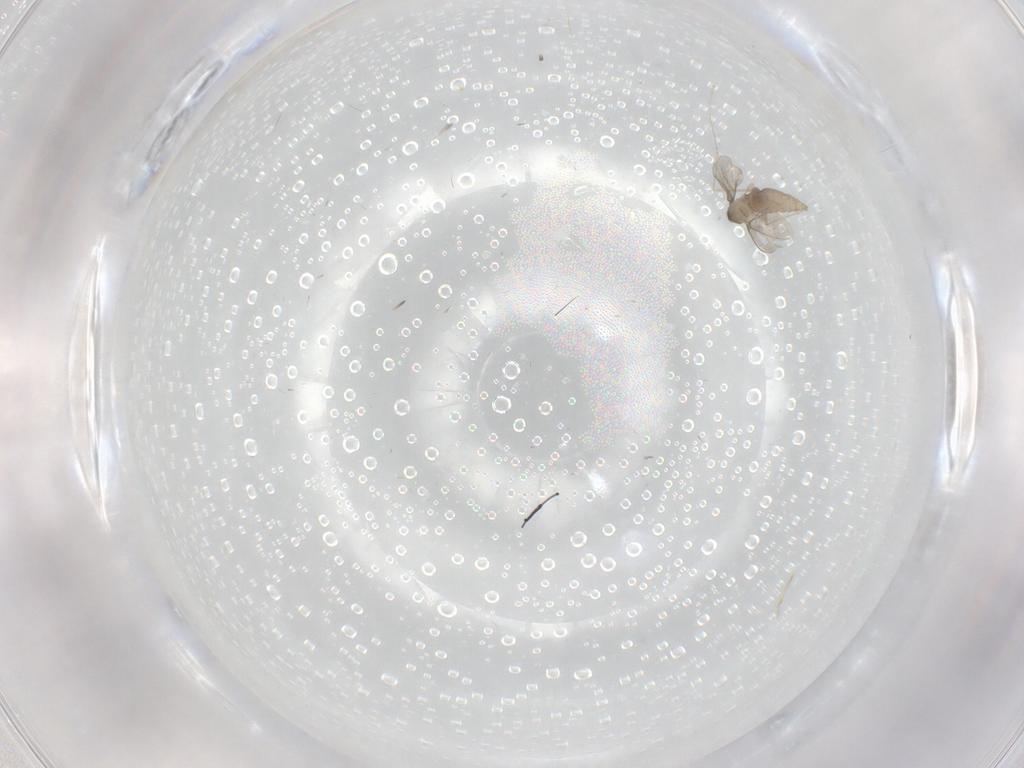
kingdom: Animalia
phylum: Arthropoda
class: Insecta
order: Diptera
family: Cecidomyiidae
